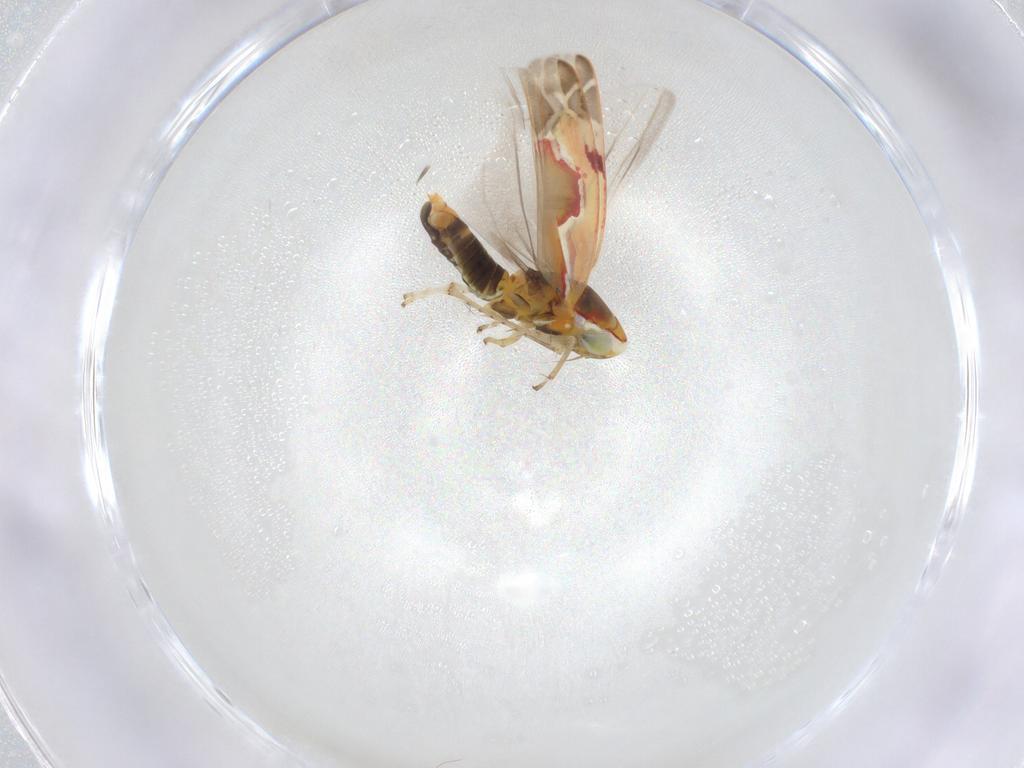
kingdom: Animalia
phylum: Arthropoda
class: Insecta
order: Hemiptera
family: Cicadellidae
